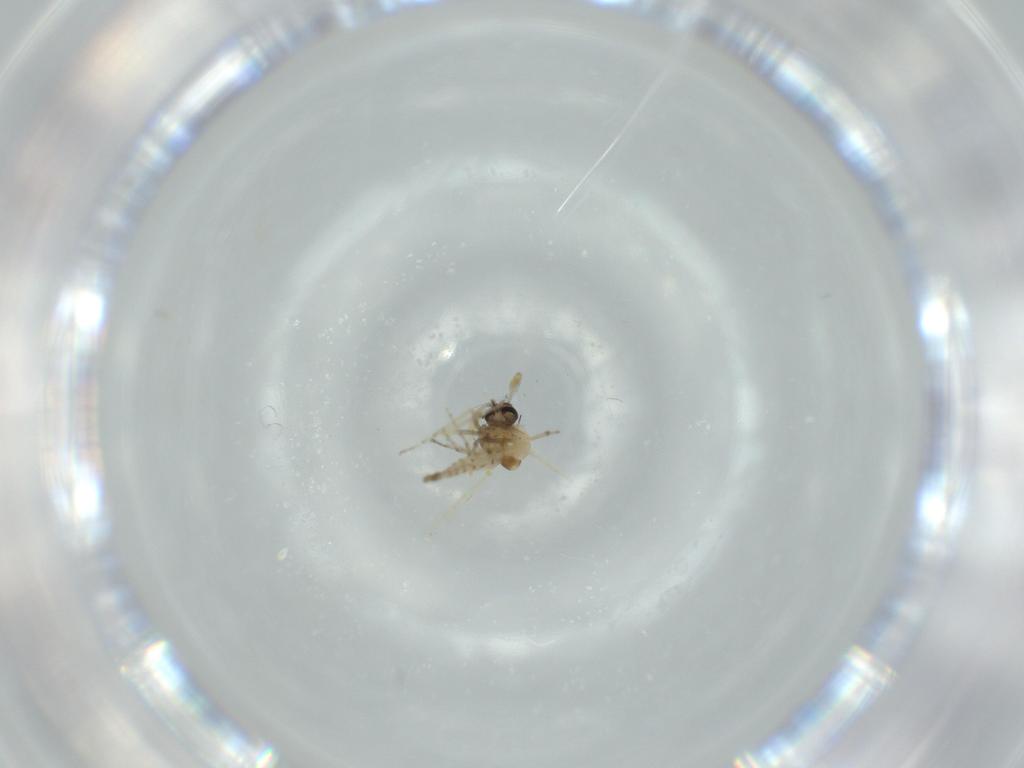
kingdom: Animalia
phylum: Arthropoda
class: Insecta
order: Diptera
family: Ceratopogonidae
